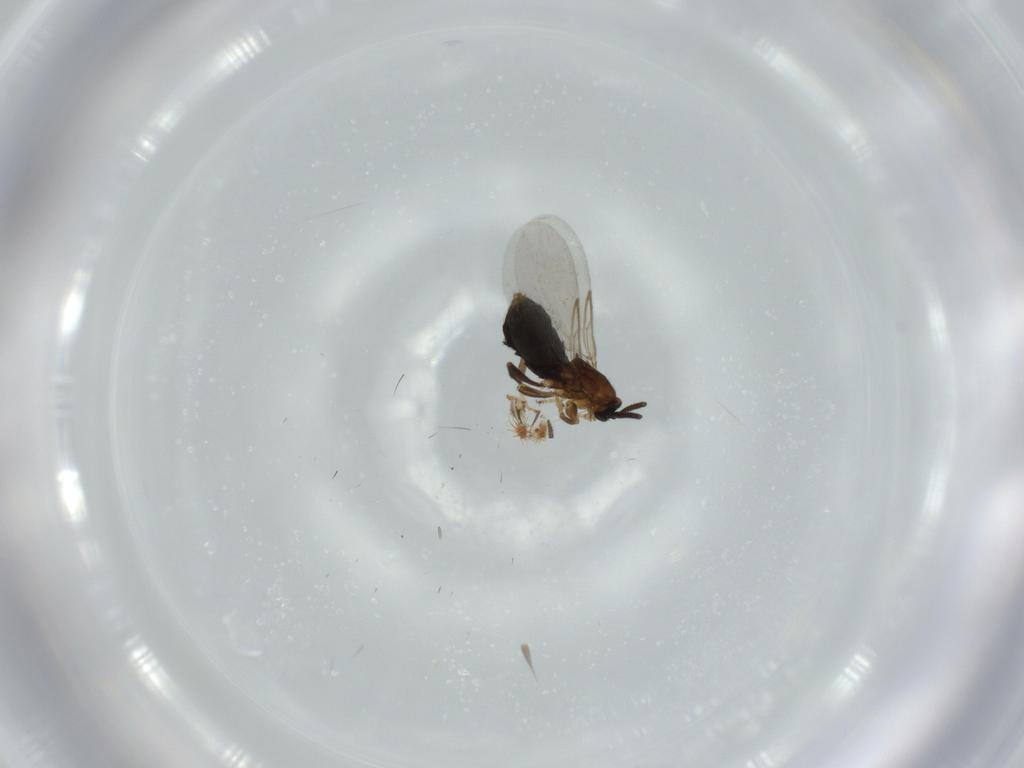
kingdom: Animalia
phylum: Arthropoda
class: Insecta
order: Diptera
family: Scatopsidae
